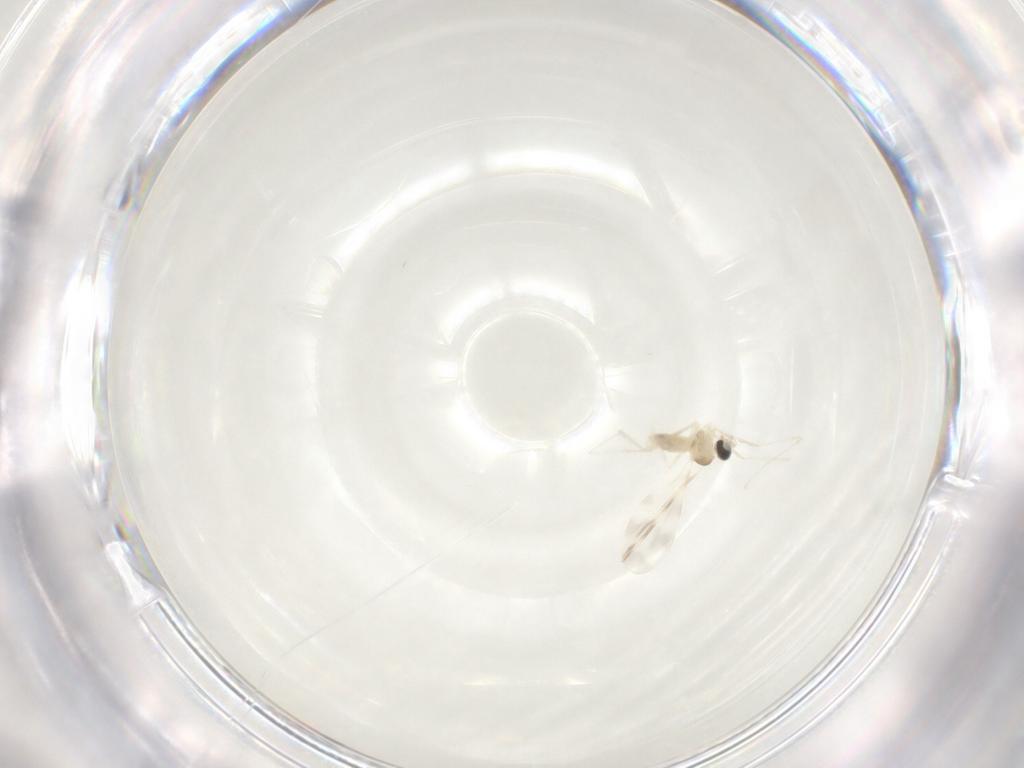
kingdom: Animalia
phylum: Arthropoda
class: Insecta
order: Diptera
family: Cecidomyiidae
